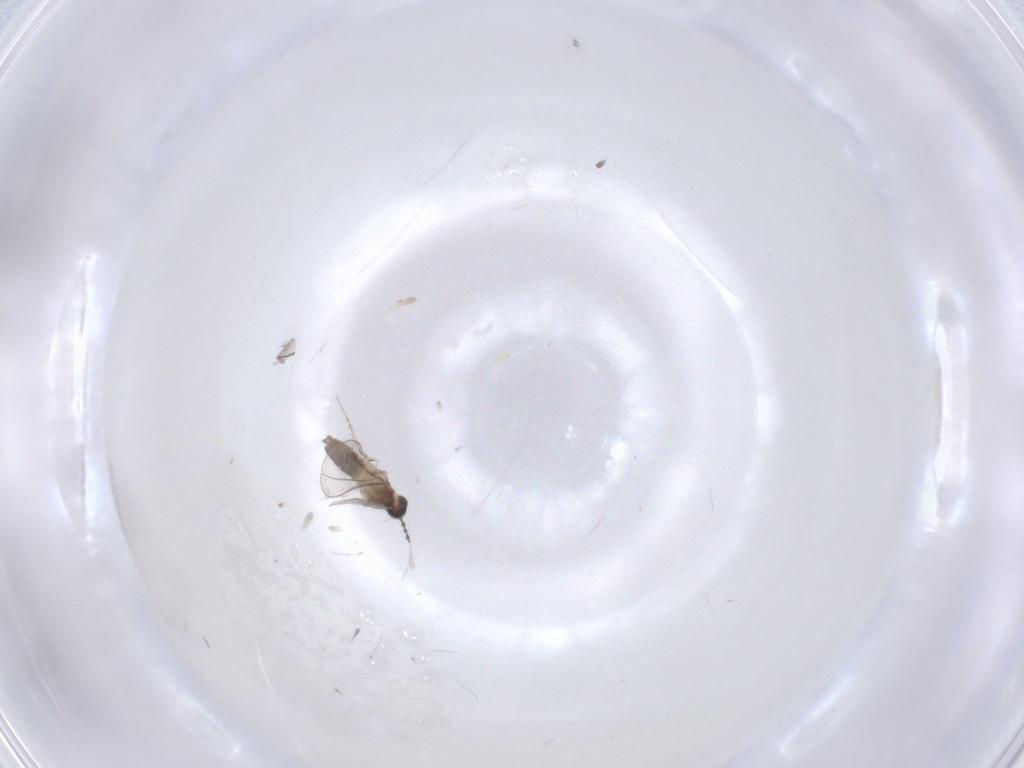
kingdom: Animalia
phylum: Arthropoda
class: Insecta
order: Diptera
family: Cecidomyiidae
